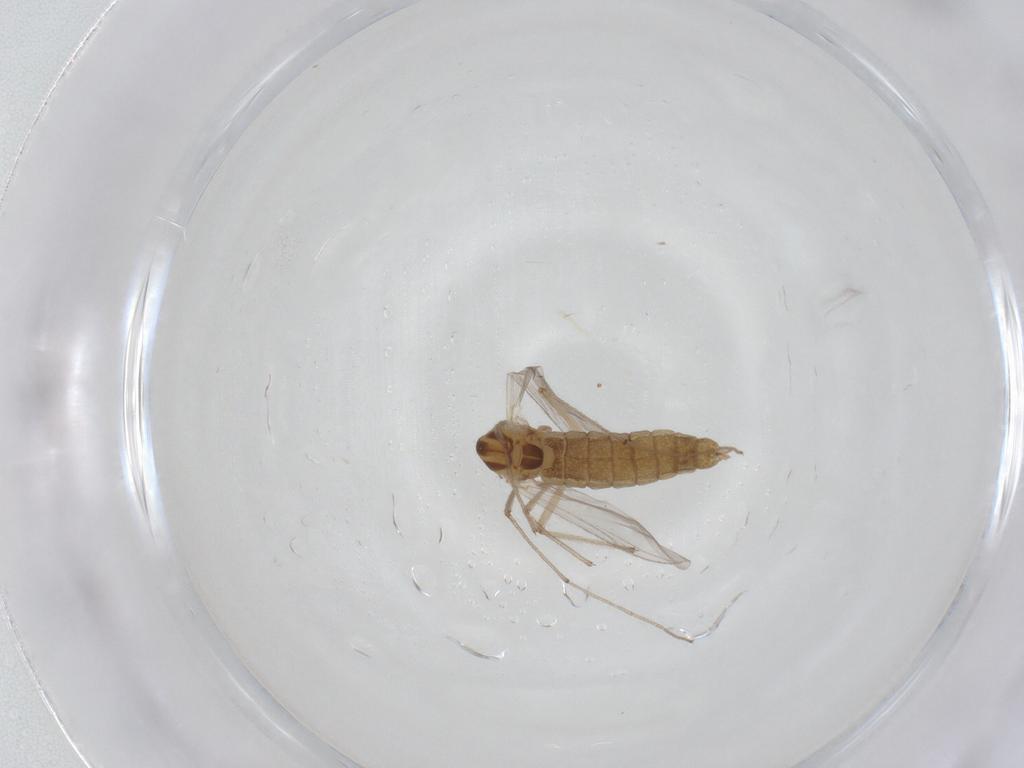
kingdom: Animalia
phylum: Arthropoda
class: Insecta
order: Diptera
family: Chironomidae
